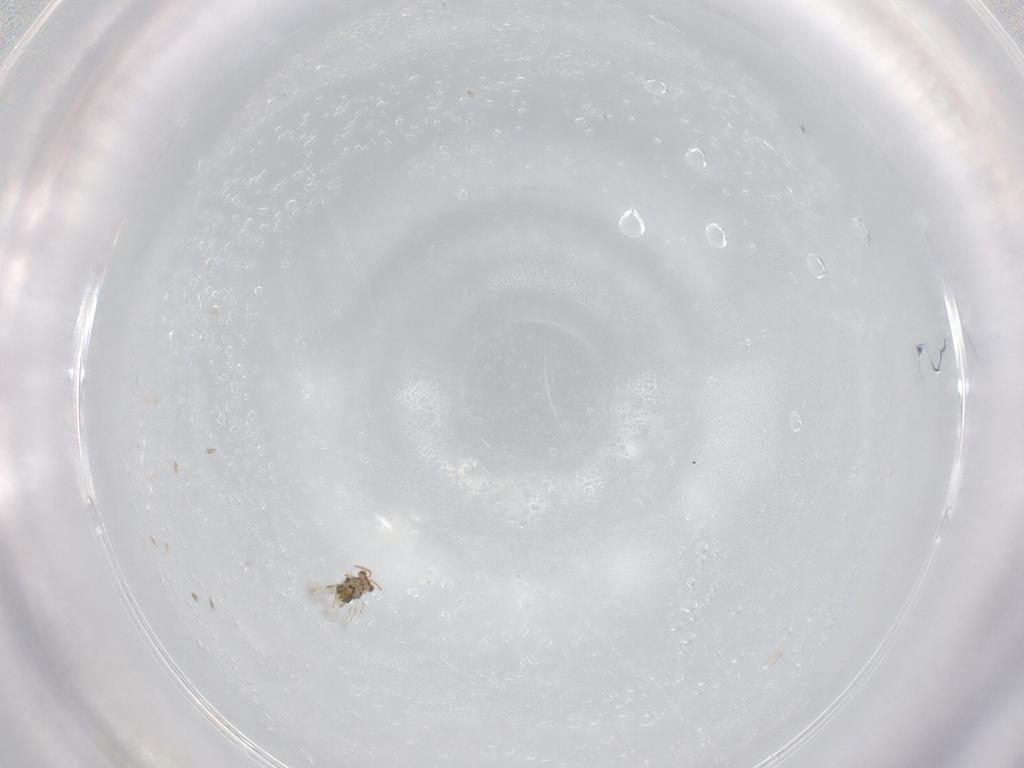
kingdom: Animalia
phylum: Arthropoda
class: Insecta
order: Hymenoptera
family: Aphelinidae
